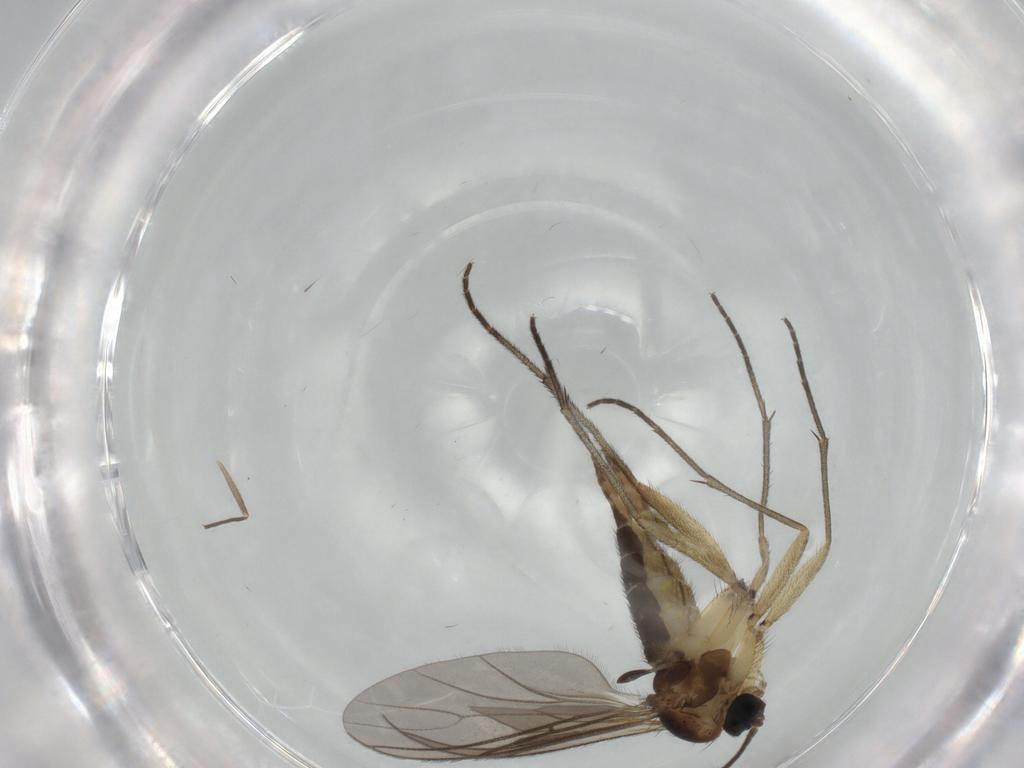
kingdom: Animalia
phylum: Arthropoda
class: Insecta
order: Diptera
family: Sciaridae
